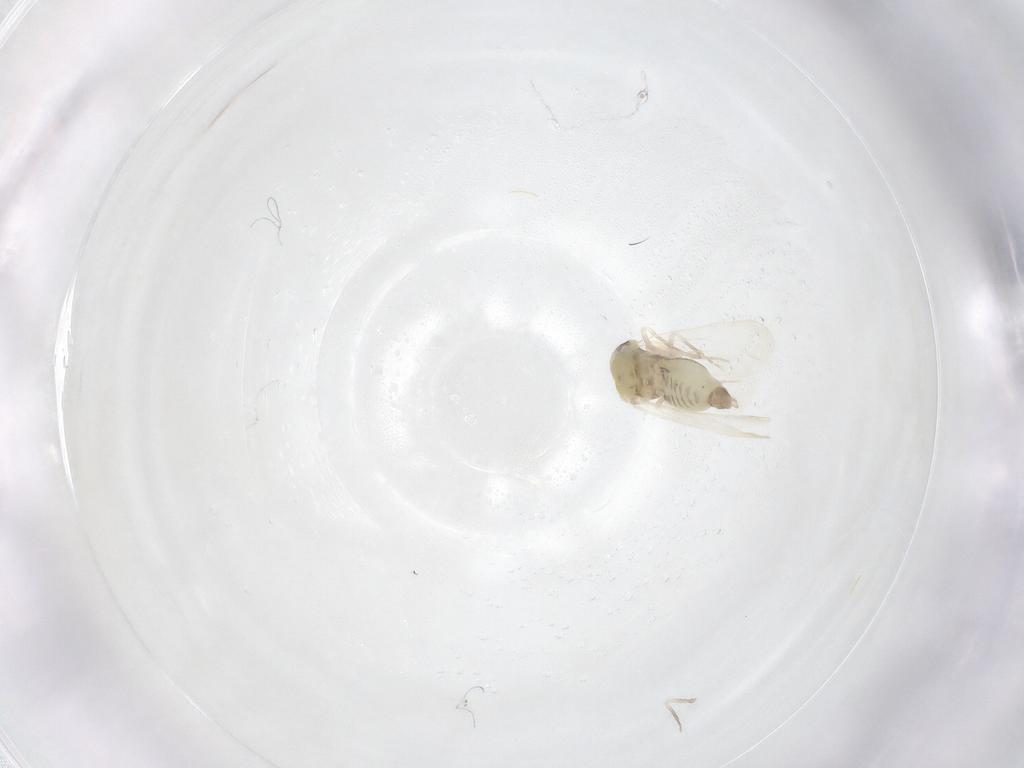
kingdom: Animalia
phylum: Arthropoda
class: Insecta
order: Hemiptera
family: Aleyrodidae
